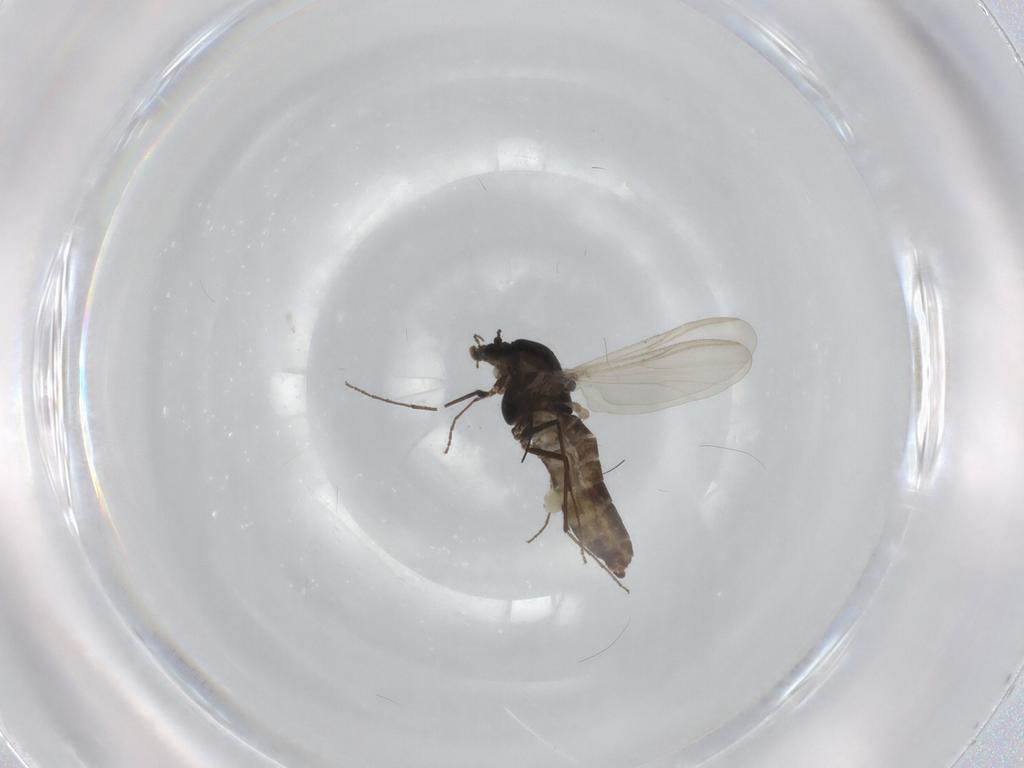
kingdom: Animalia
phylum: Arthropoda
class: Insecta
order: Diptera
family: Chironomidae
